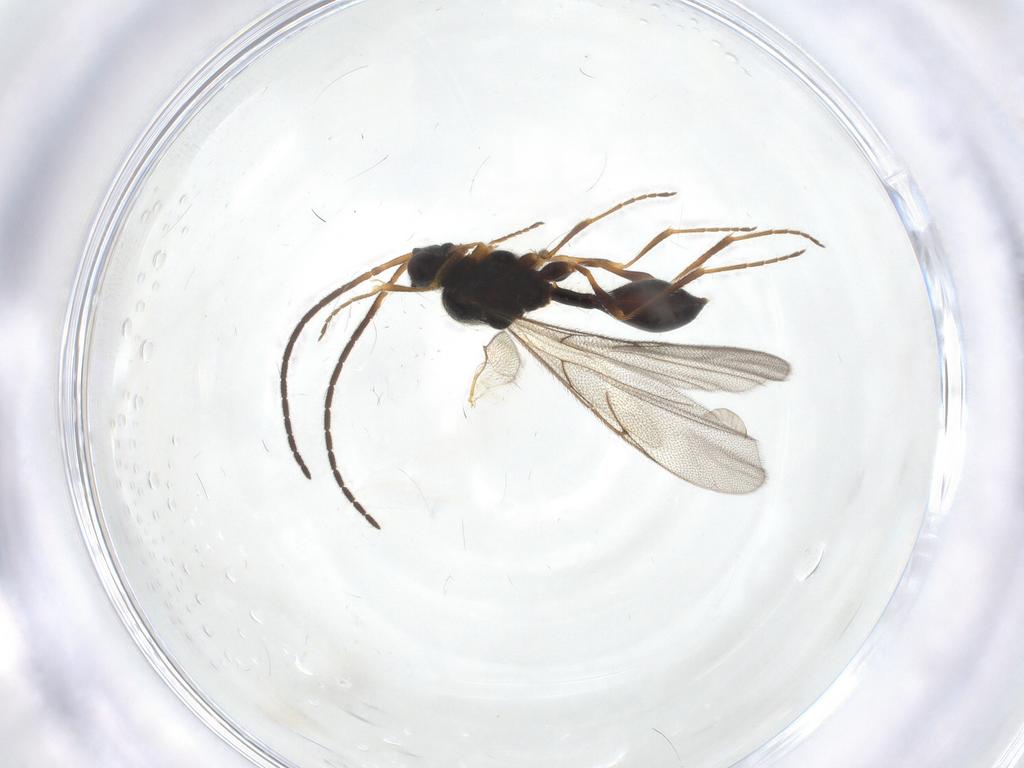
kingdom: Animalia
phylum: Arthropoda
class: Insecta
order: Hymenoptera
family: Diapriidae
